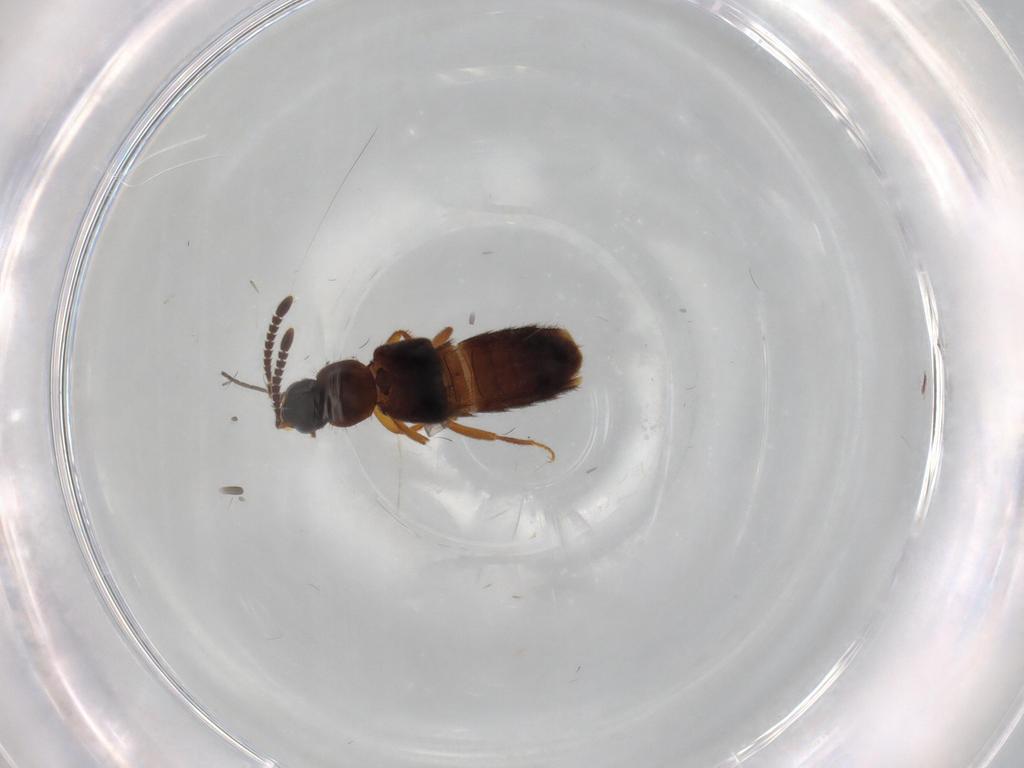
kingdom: Animalia
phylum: Arthropoda
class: Insecta
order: Coleoptera
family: Staphylinidae
